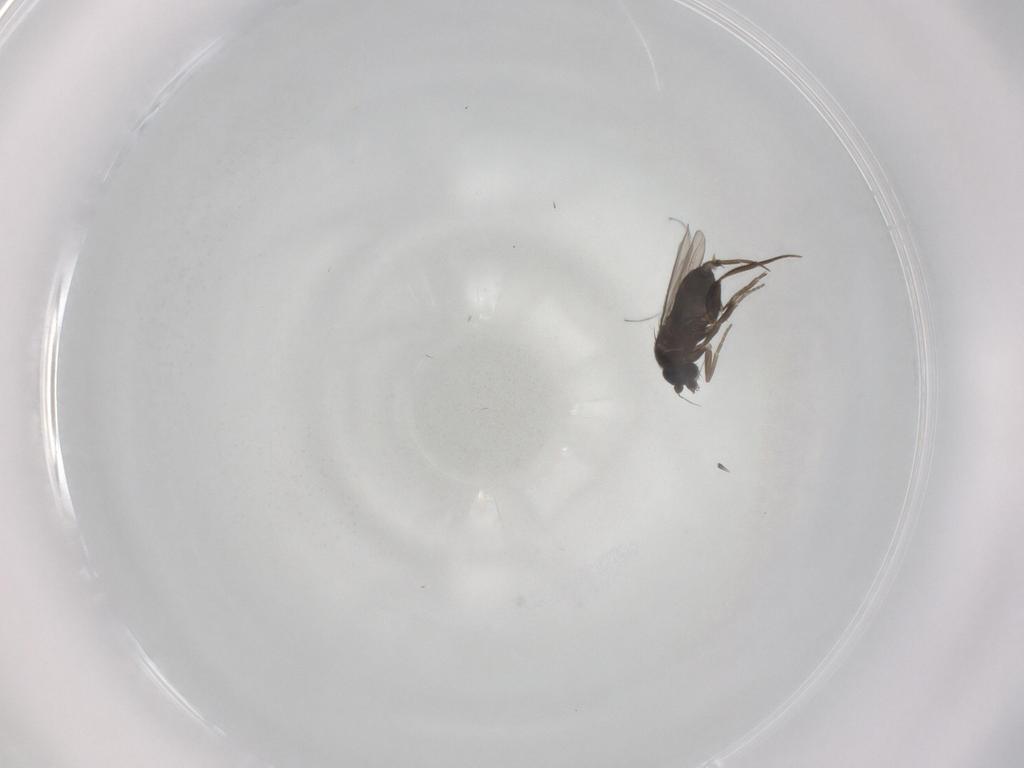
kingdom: Animalia
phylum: Arthropoda
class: Insecta
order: Diptera
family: Phoridae
